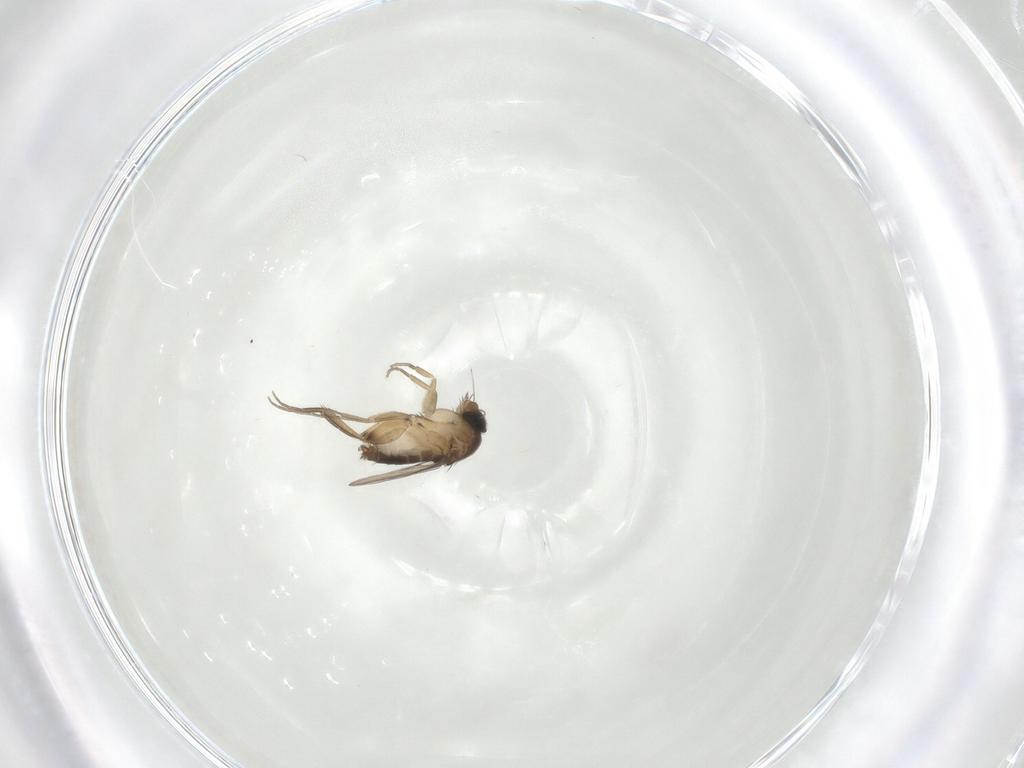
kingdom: Animalia
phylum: Arthropoda
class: Insecta
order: Diptera
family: Phoridae
